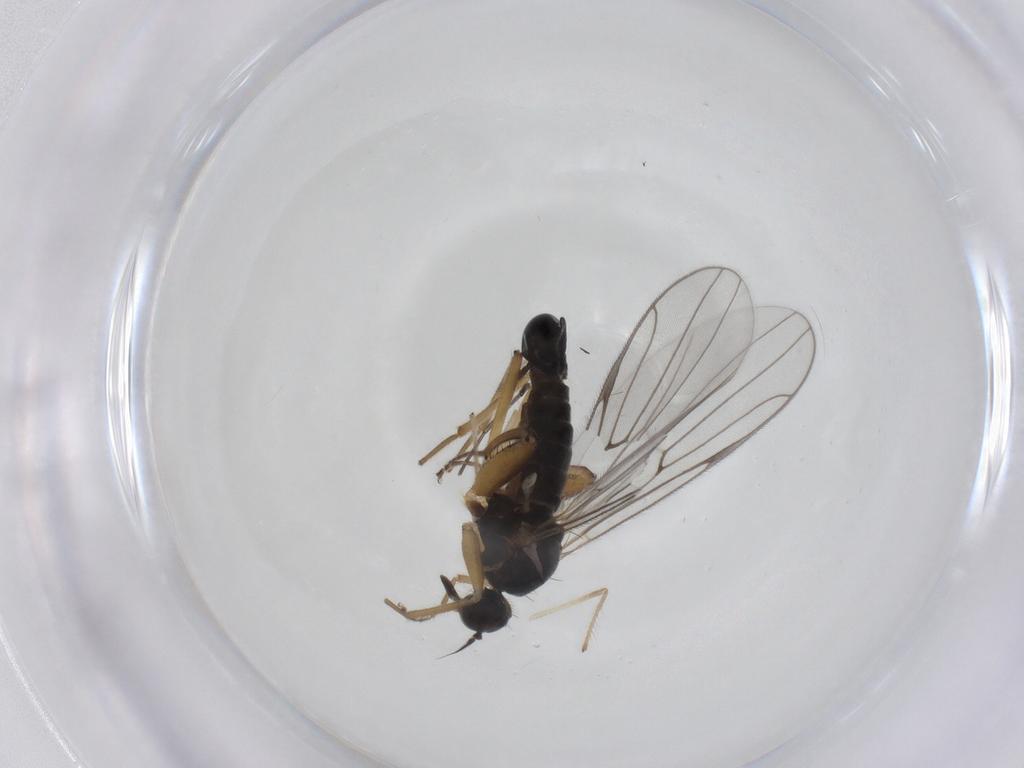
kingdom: Animalia
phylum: Arthropoda
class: Insecta
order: Diptera
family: Hybotidae
